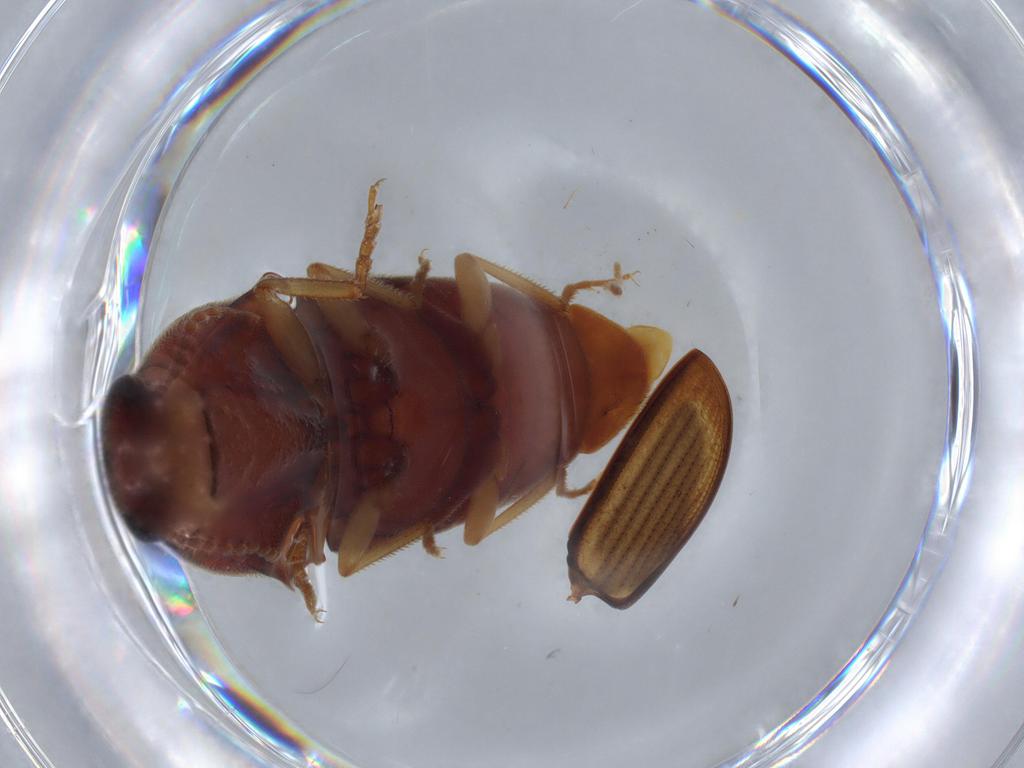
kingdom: Animalia
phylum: Arthropoda
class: Insecta
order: Coleoptera
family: Elateridae
